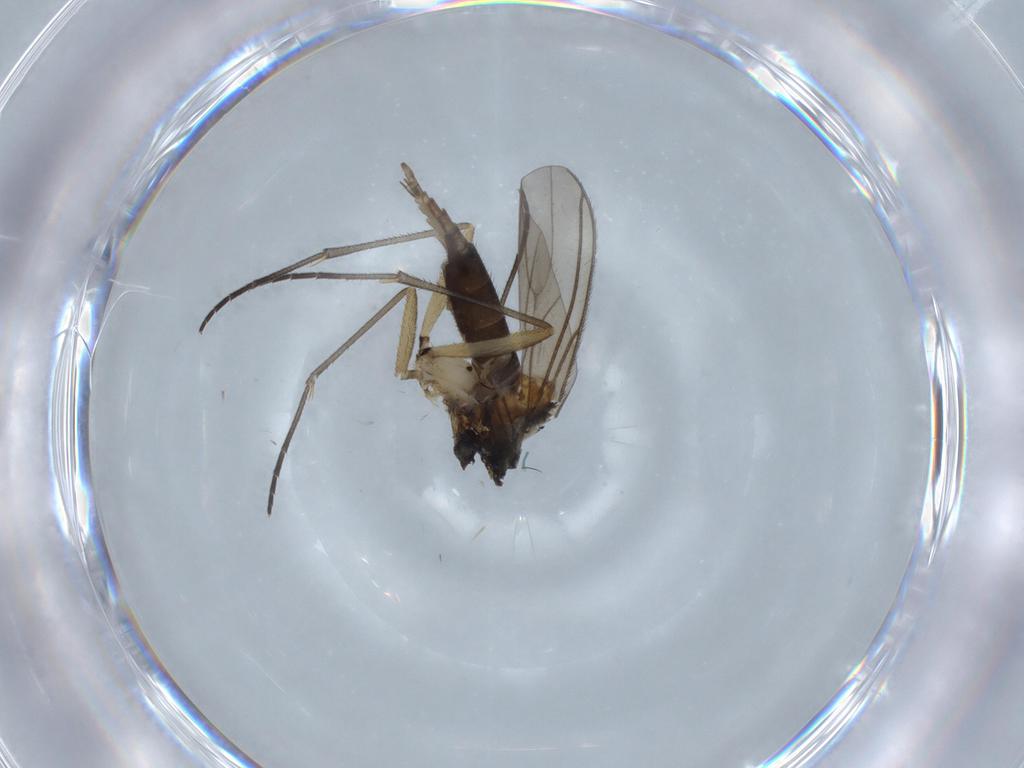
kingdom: Animalia
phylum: Arthropoda
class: Insecta
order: Diptera
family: Sciaridae
